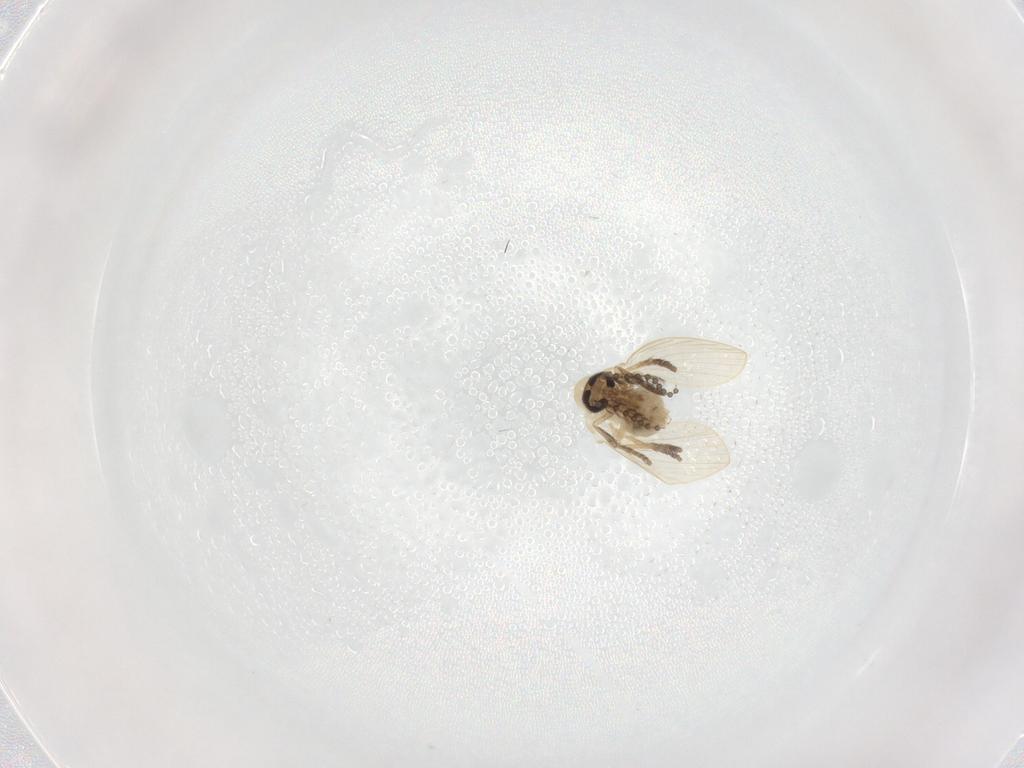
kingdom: Animalia
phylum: Arthropoda
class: Insecta
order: Diptera
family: Psychodidae
